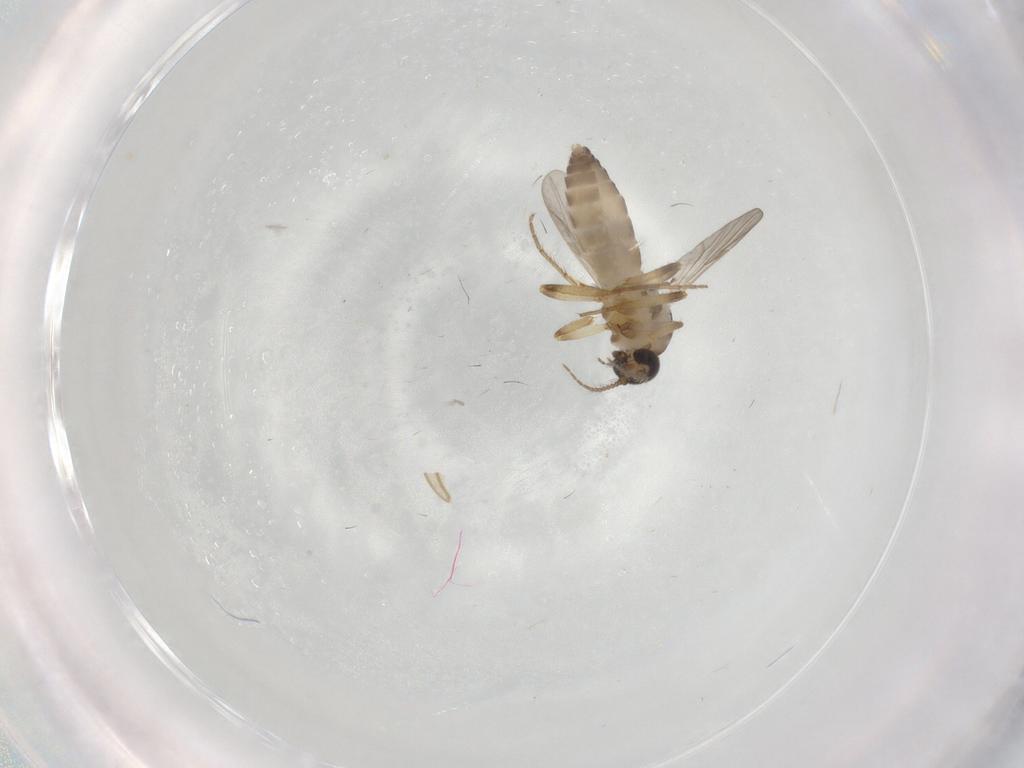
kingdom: Animalia
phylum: Arthropoda
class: Insecta
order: Diptera
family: Ceratopogonidae
